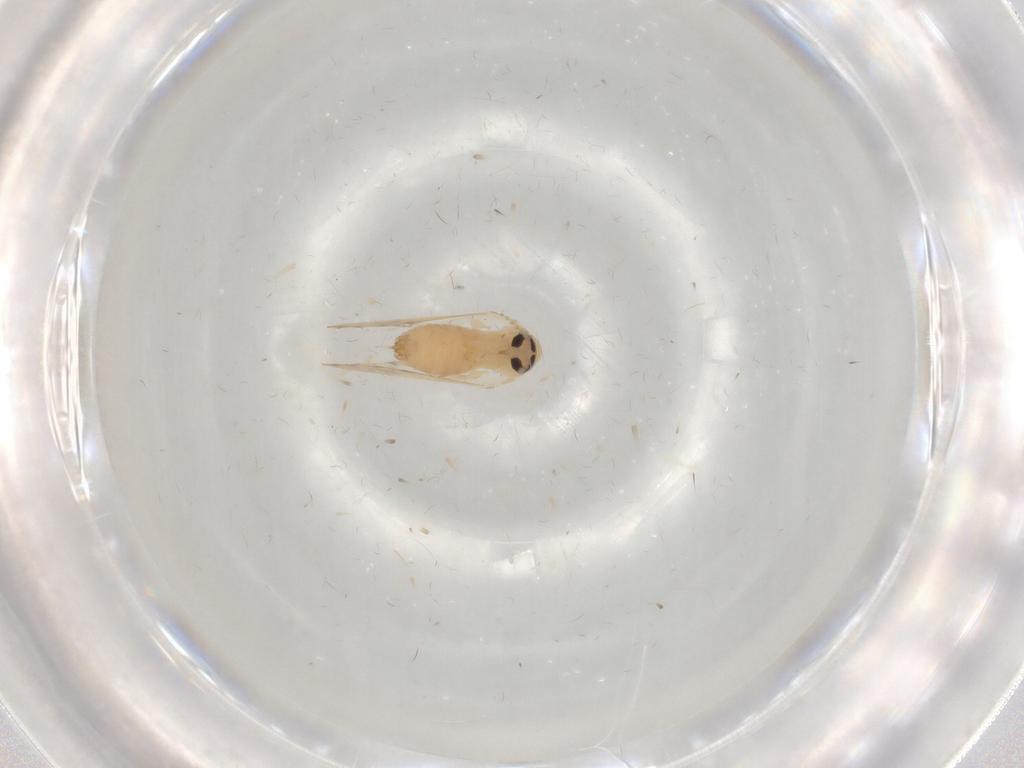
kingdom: Animalia
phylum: Arthropoda
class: Insecta
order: Diptera
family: Psychodidae
